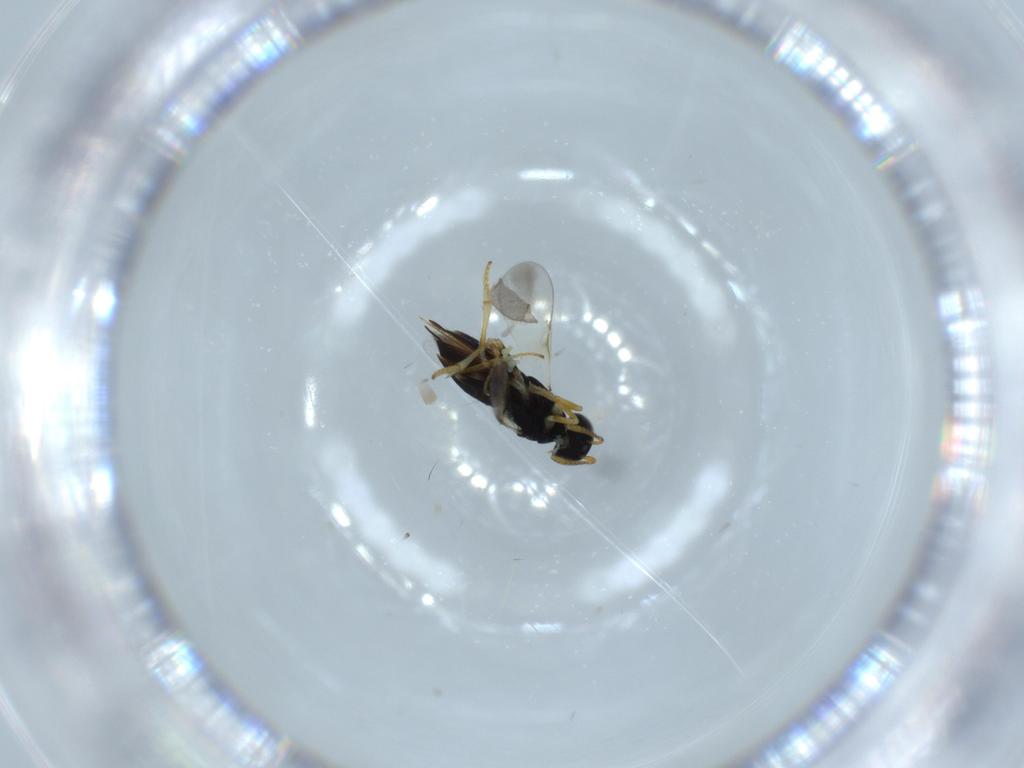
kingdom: Animalia
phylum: Arthropoda
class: Insecta
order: Hymenoptera
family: Encyrtidae
